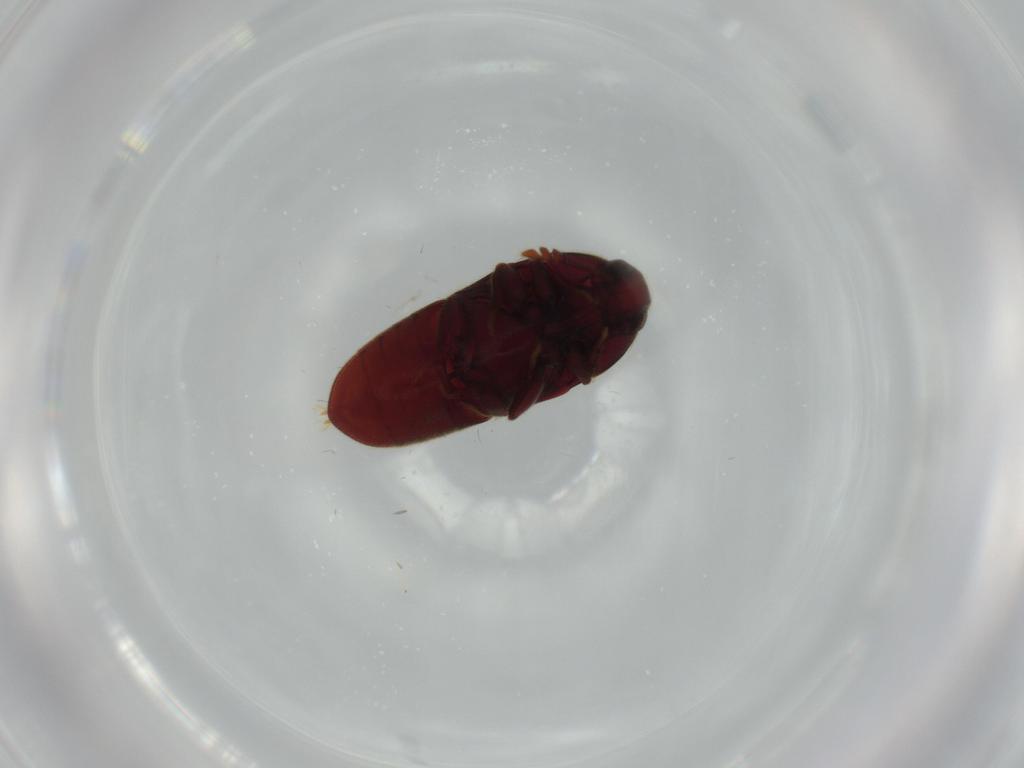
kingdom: Animalia
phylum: Arthropoda
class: Insecta
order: Coleoptera
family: Throscidae
